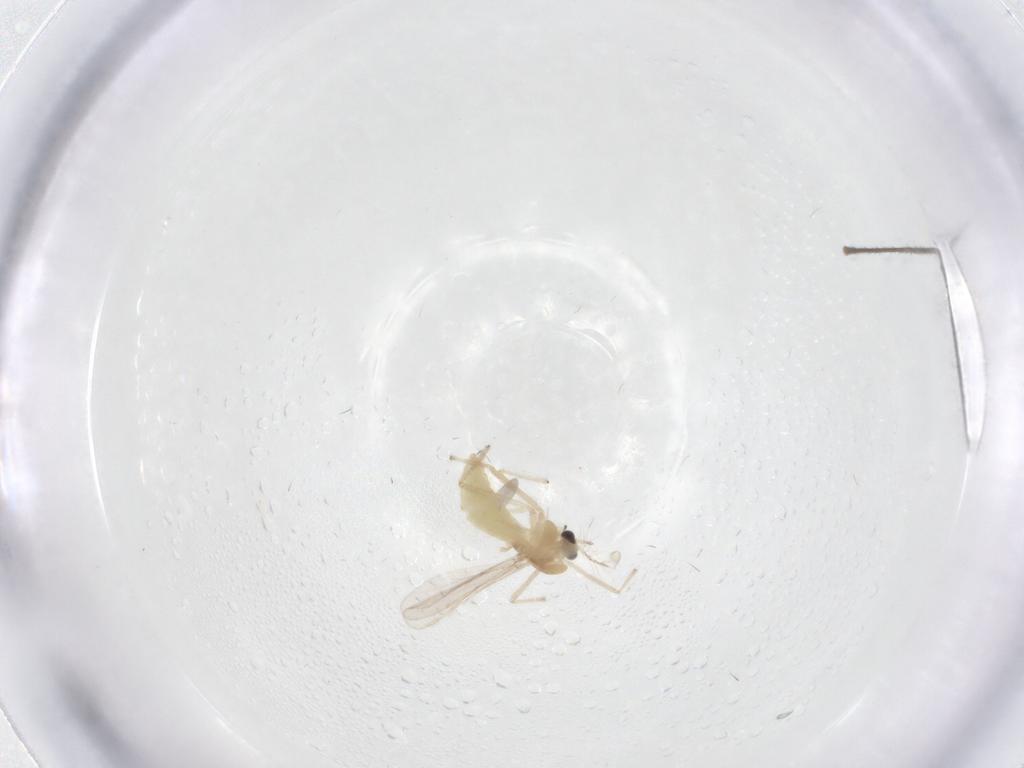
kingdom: Animalia
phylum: Arthropoda
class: Insecta
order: Diptera
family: Chironomidae
